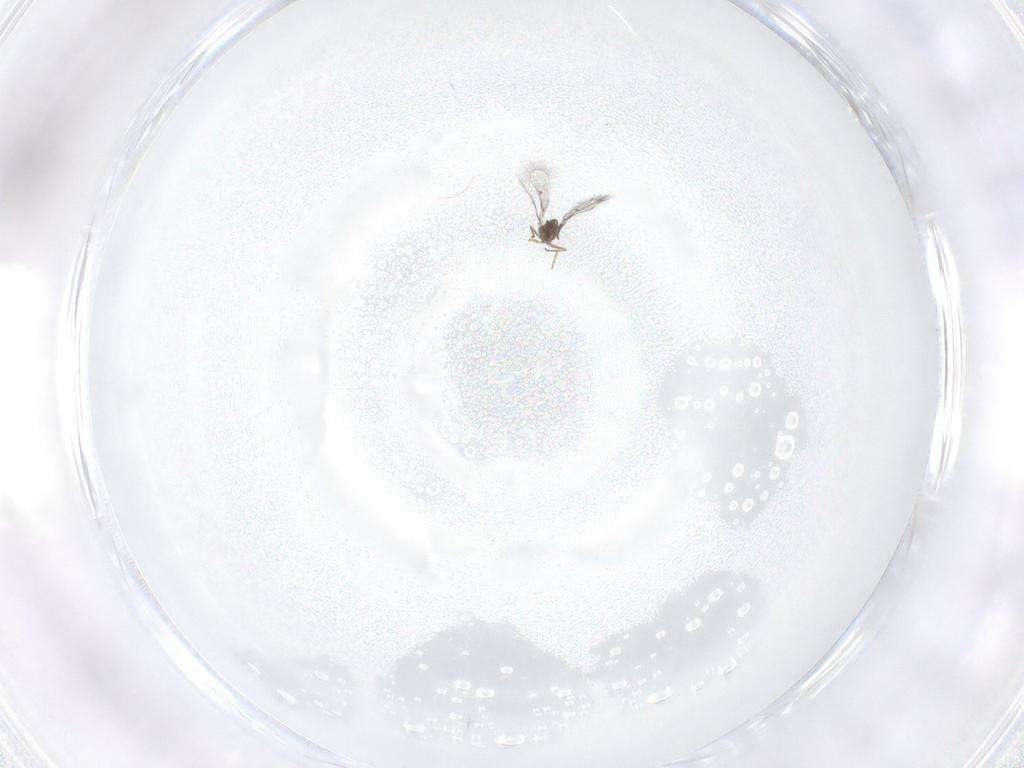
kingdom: Animalia
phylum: Arthropoda
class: Insecta
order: Hymenoptera
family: Trichogrammatidae
